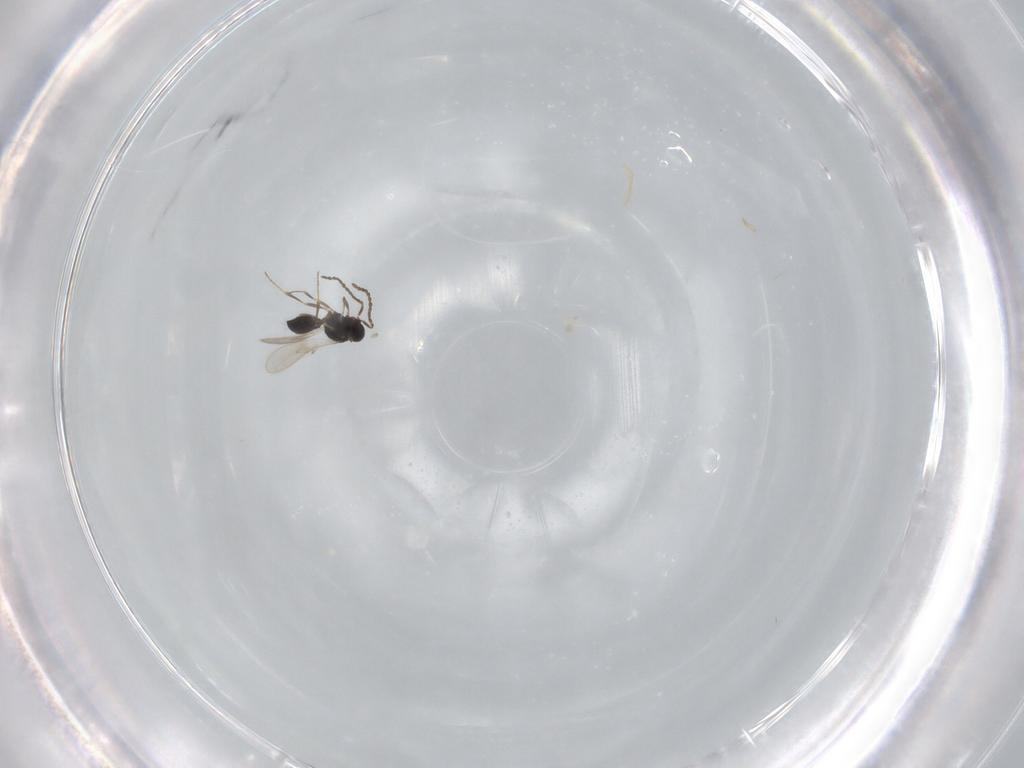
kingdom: Animalia
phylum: Arthropoda
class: Insecta
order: Hymenoptera
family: Scelionidae
